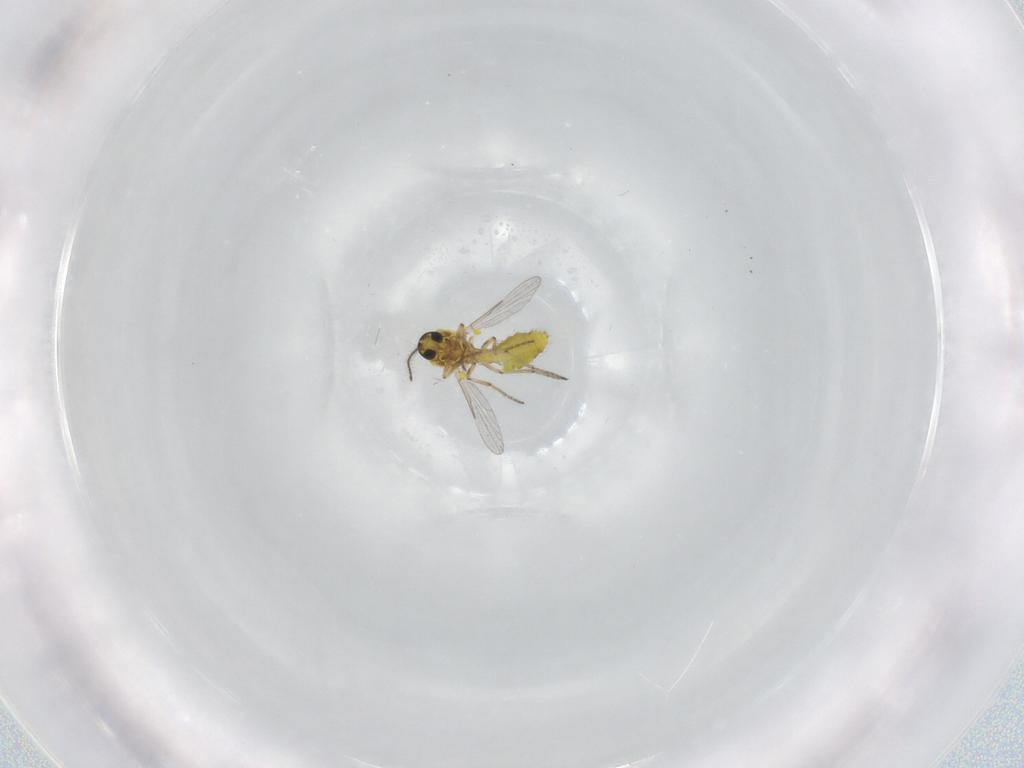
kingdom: Animalia
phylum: Arthropoda
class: Insecta
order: Diptera
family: Ceratopogonidae
